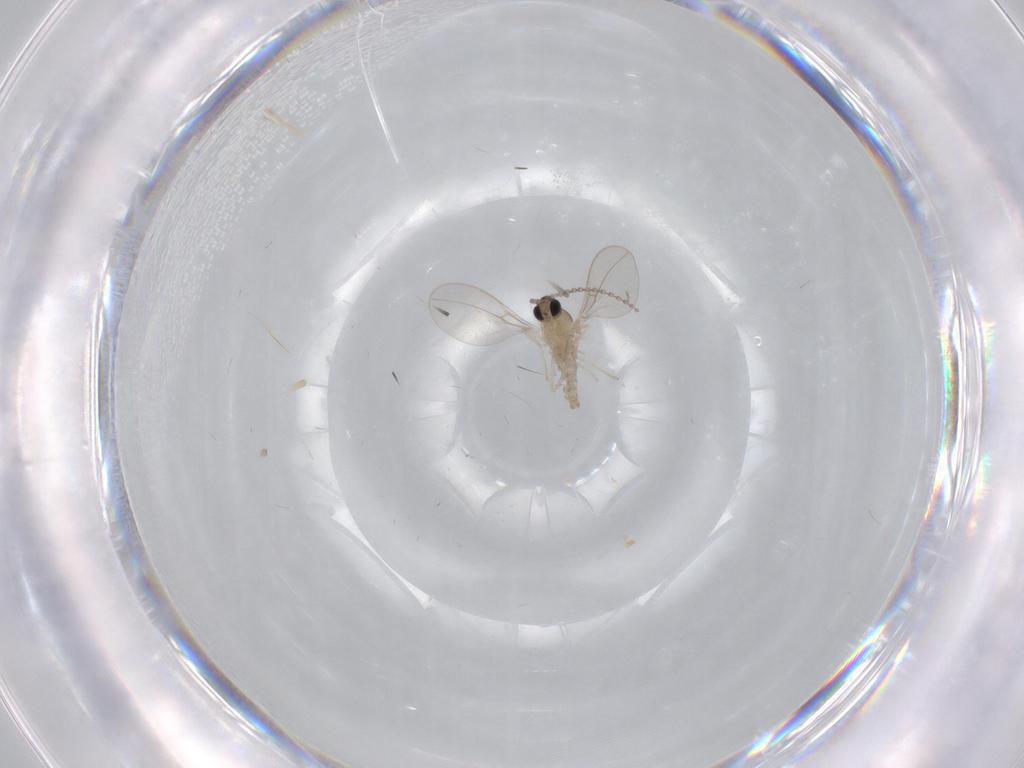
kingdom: Animalia
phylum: Arthropoda
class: Insecta
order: Diptera
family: Cecidomyiidae
